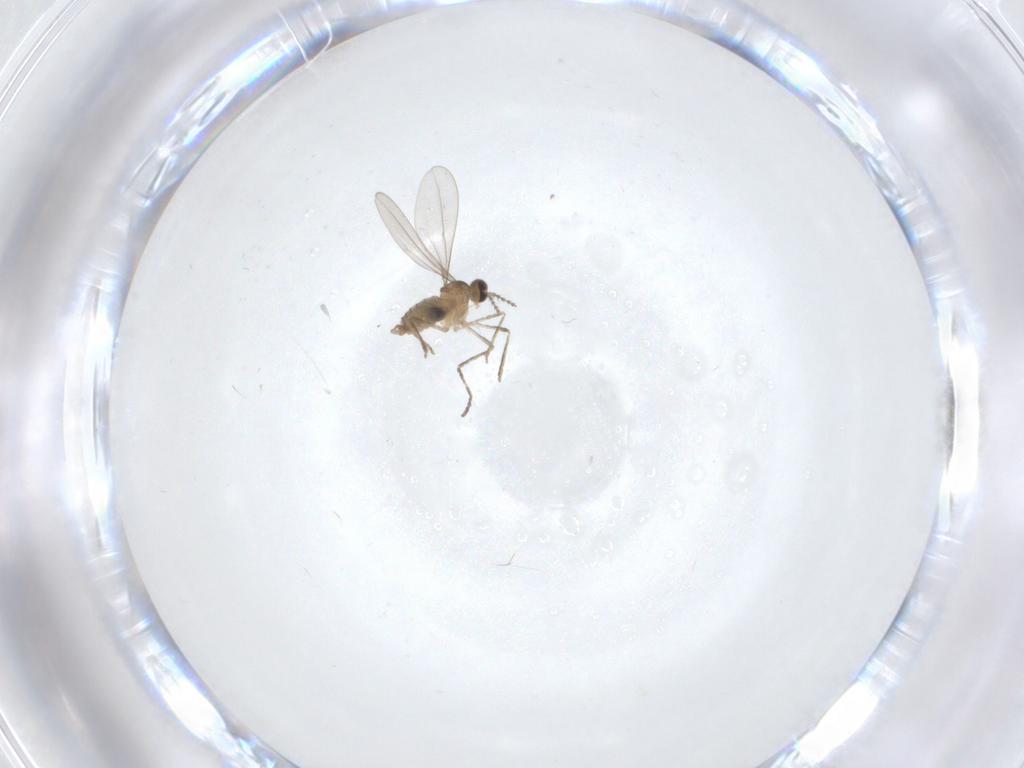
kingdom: Animalia
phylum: Arthropoda
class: Insecta
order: Diptera
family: Cecidomyiidae
